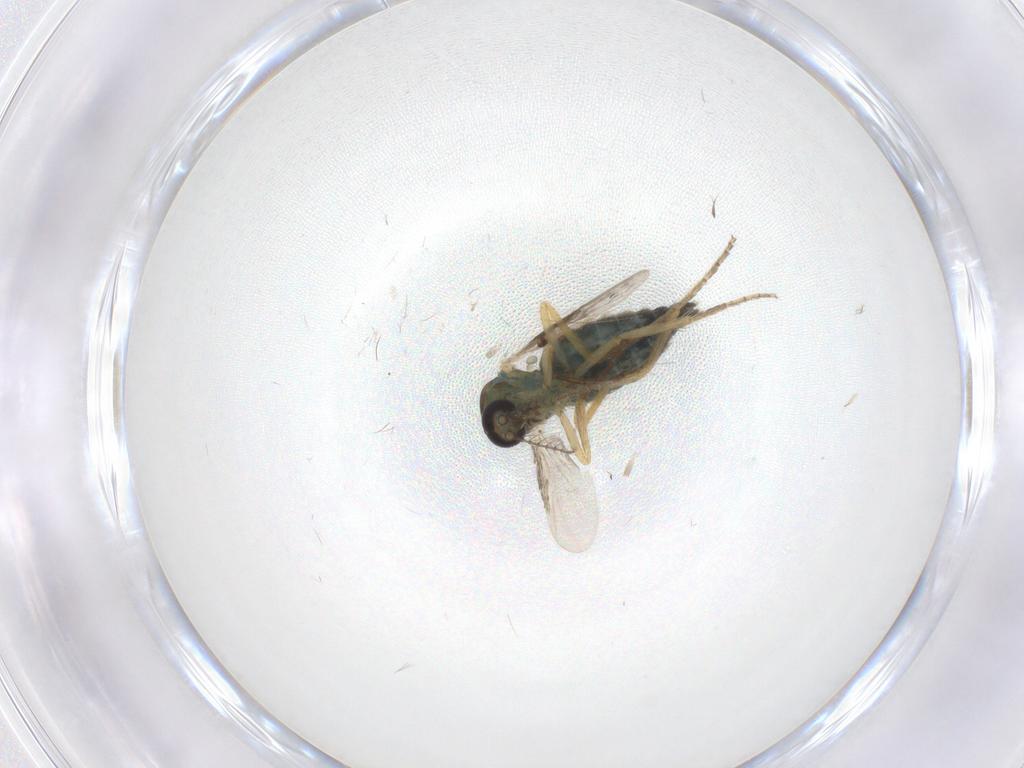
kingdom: Animalia
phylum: Arthropoda
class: Insecta
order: Diptera
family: Ceratopogonidae
